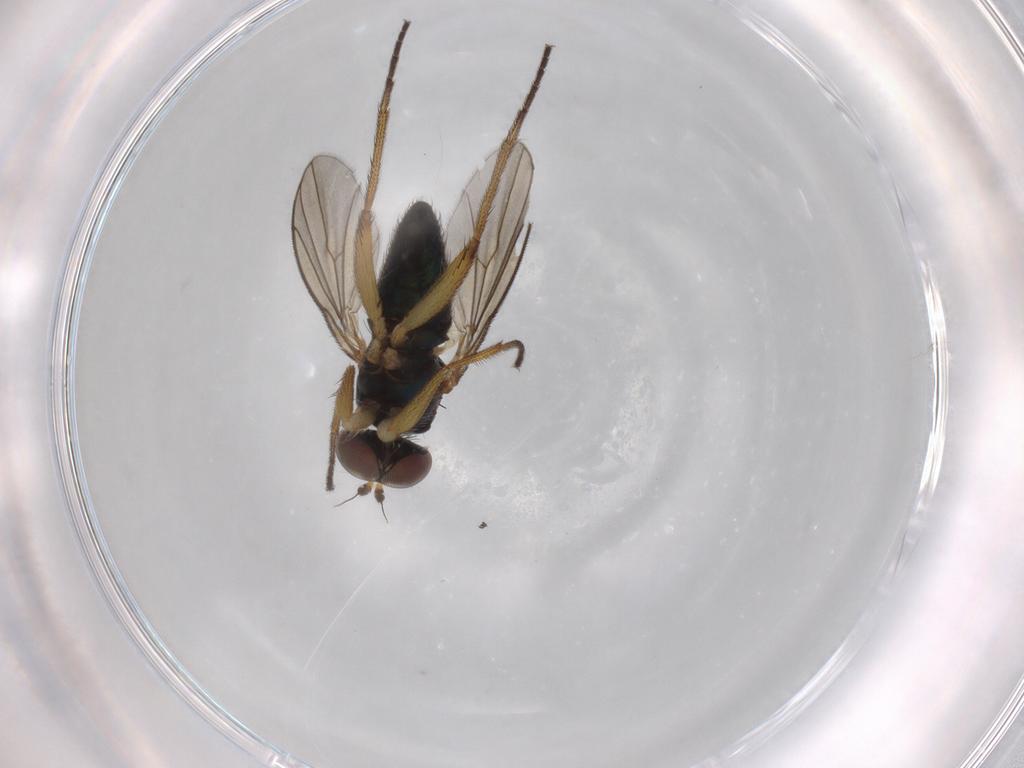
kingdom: Animalia
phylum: Arthropoda
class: Insecta
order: Diptera
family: Dolichopodidae
